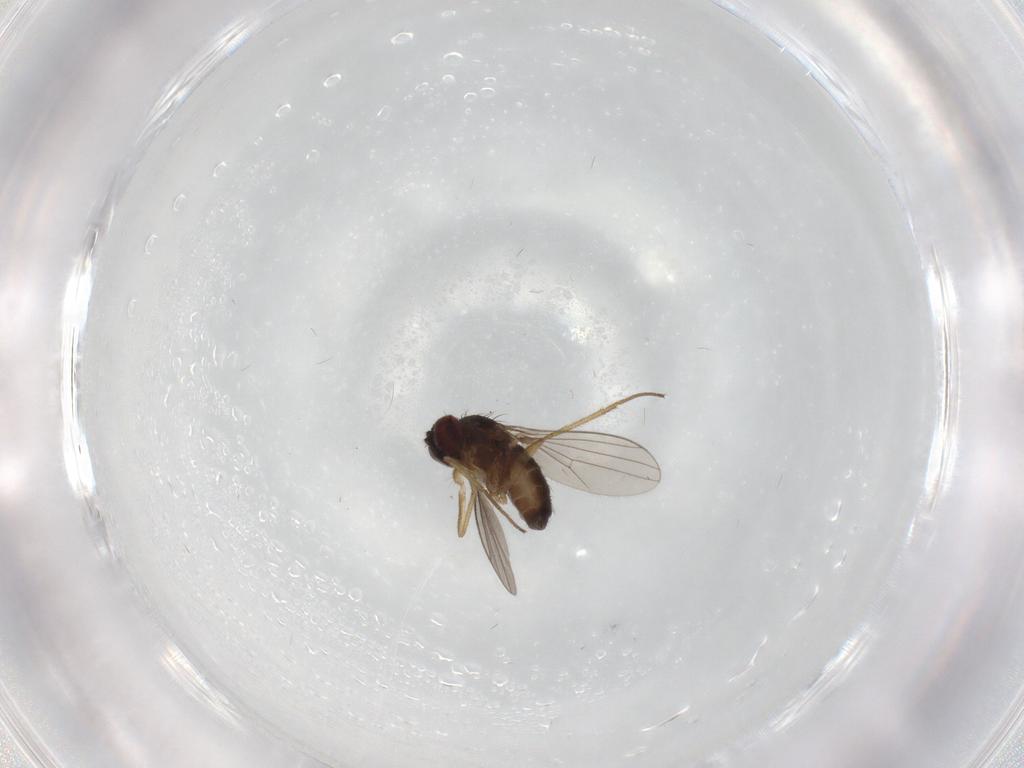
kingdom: Animalia
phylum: Arthropoda
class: Insecta
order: Diptera
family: Dolichopodidae
